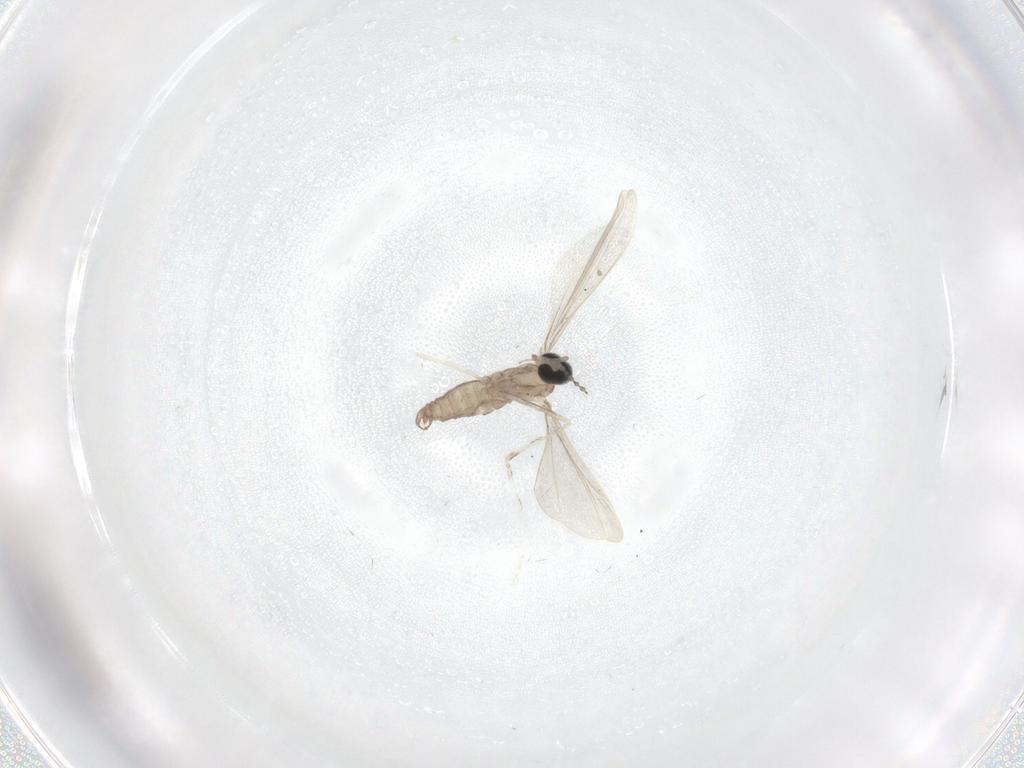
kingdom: Animalia
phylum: Arthropoda
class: Insecta
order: Diptera
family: Cecidomyiidae
